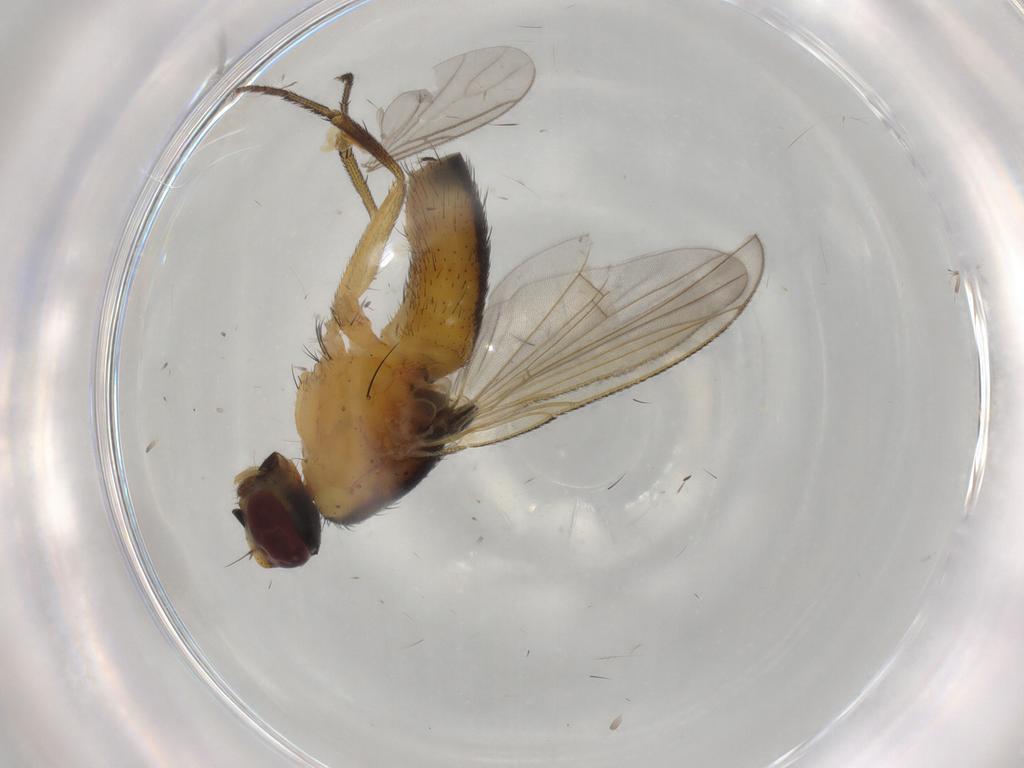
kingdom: Animalia
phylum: Arthropoda
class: Insecta
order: Diptera
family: Muscidae
